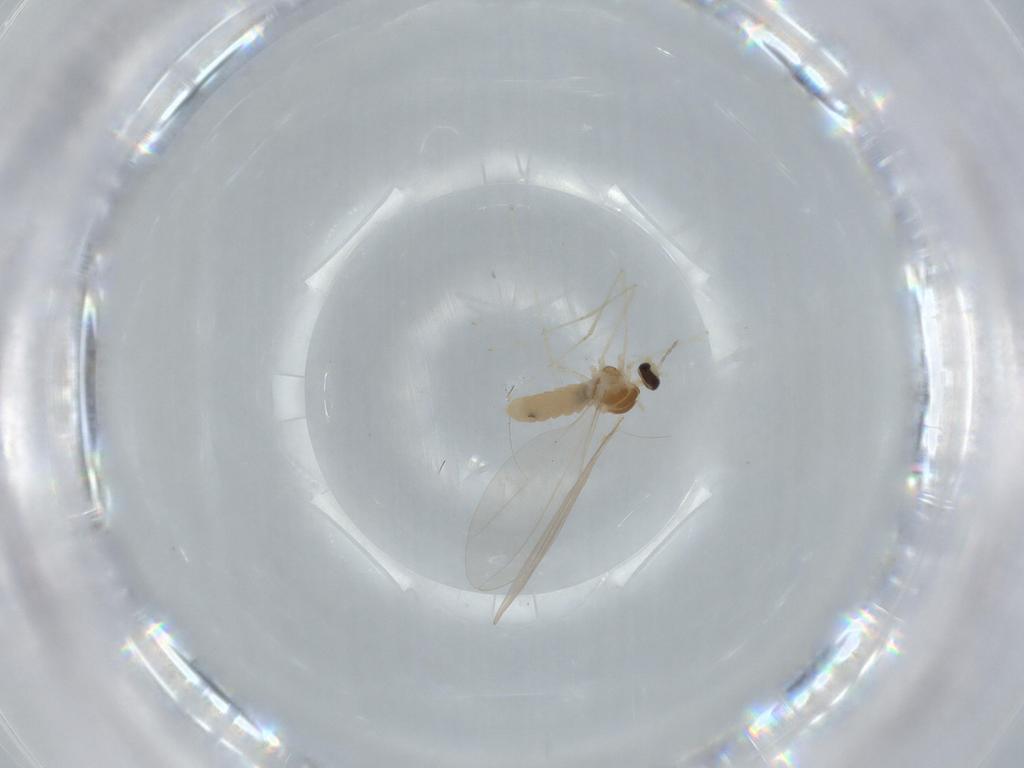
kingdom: Animalia
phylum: Arthropoda
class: Insecta
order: Diptera
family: Cecidomyiidae
